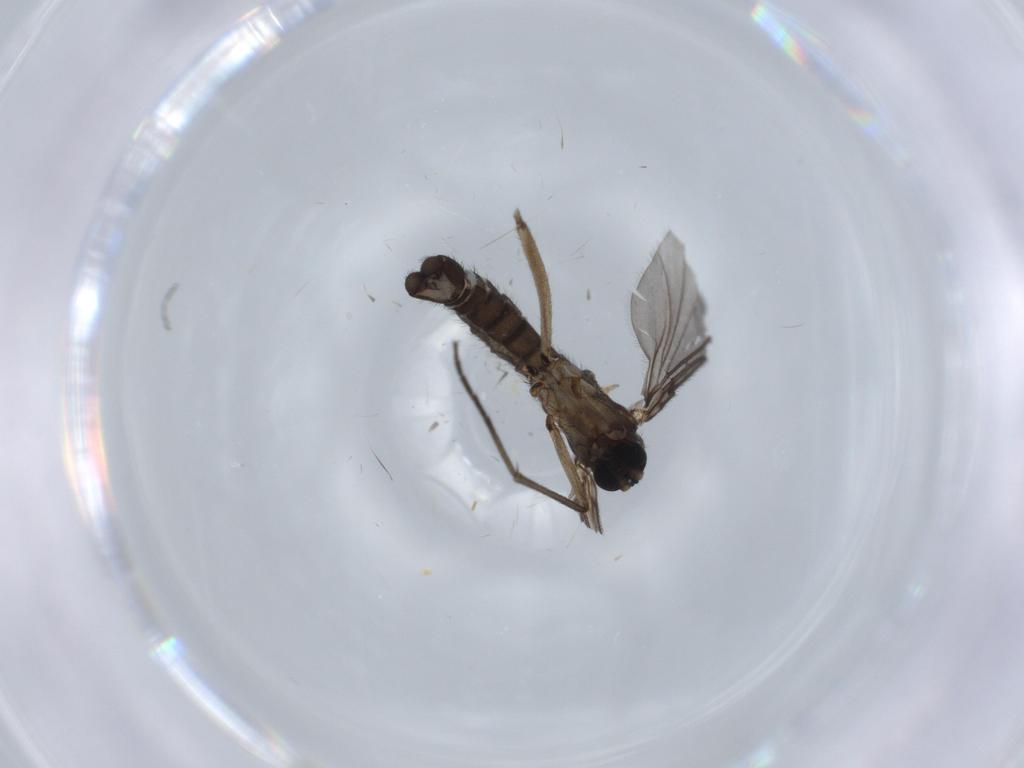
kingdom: Animalia
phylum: Arthropoda
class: Insecta
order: Diptera
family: Sciaridae
